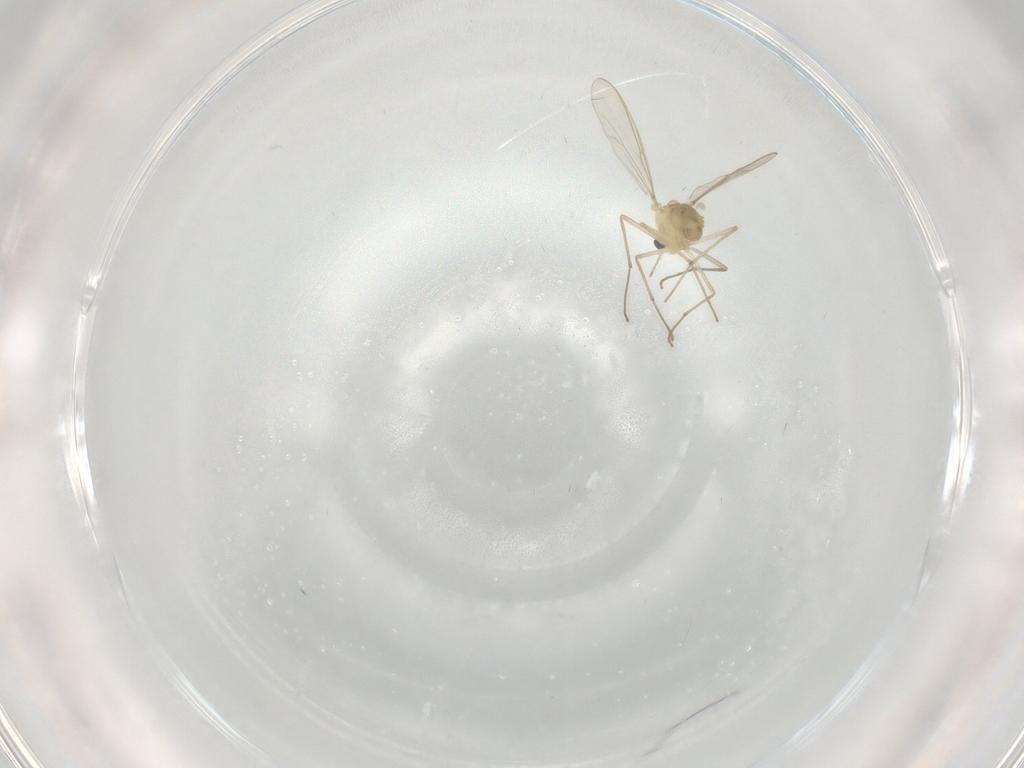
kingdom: Animalia
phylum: Arthropoda
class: Insecta
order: Diptera
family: Chironomidae
